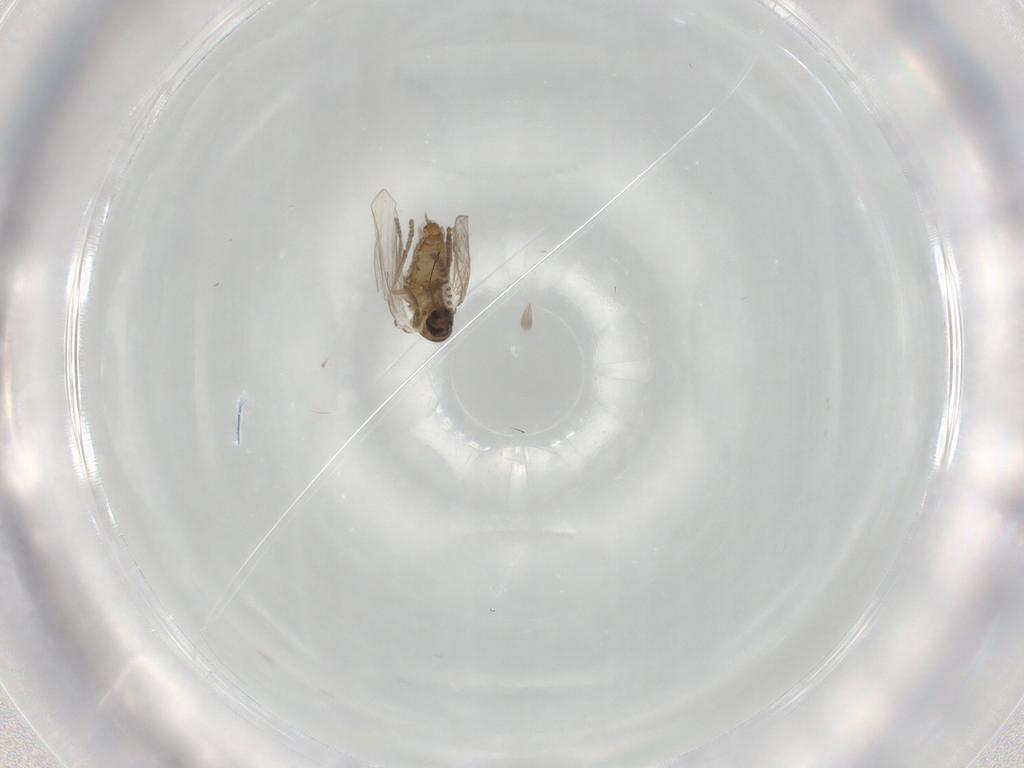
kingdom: Animalia
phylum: Arthropoda
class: Insecta
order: Diptera
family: Psychodidae
